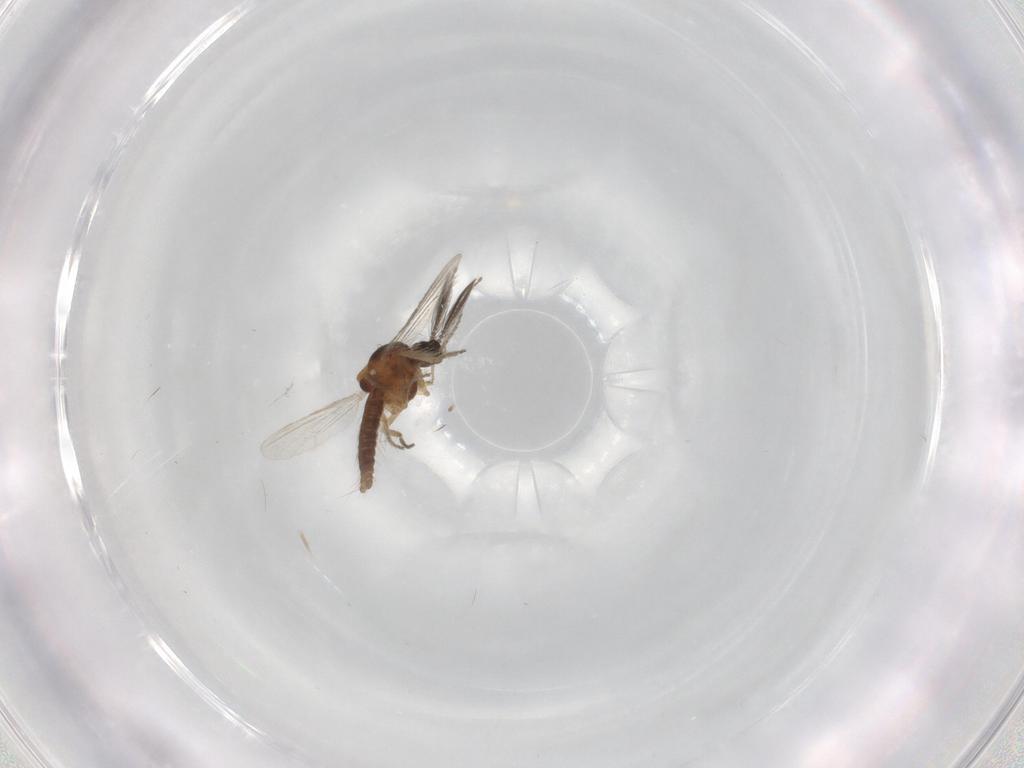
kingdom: Animalia
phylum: Arthropoda
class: Insecta
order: Diptera
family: Ceratopogonidae
